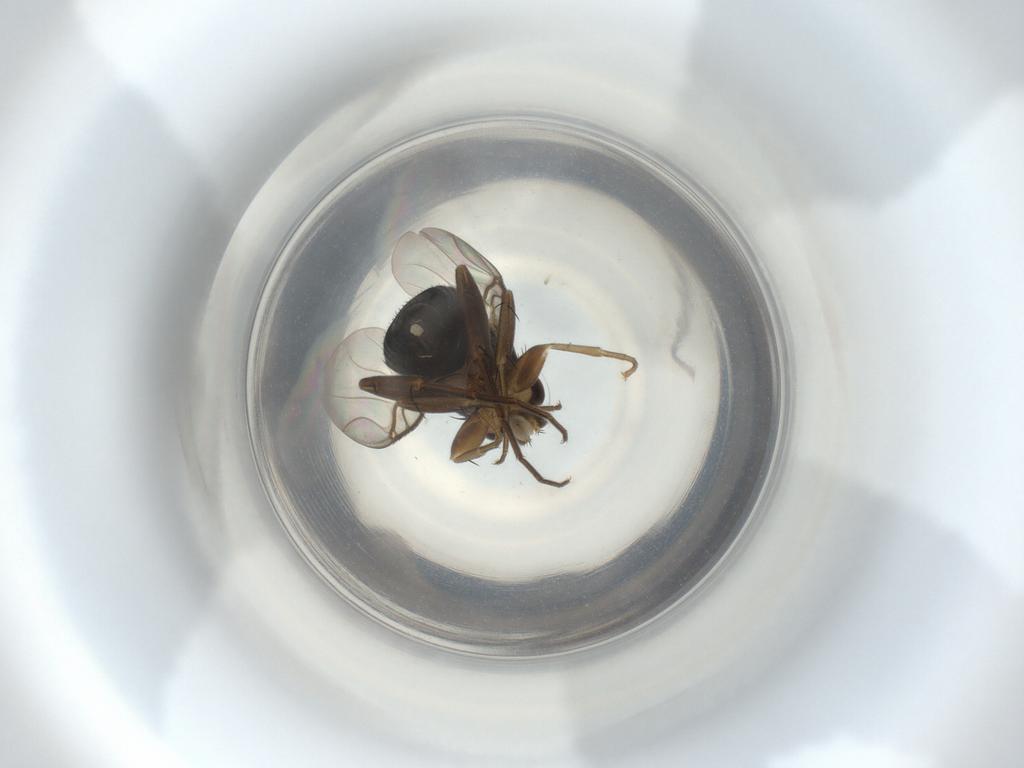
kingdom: Animalia
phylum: Arthropoda
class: Insecta
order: Diptera
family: Phoridae
